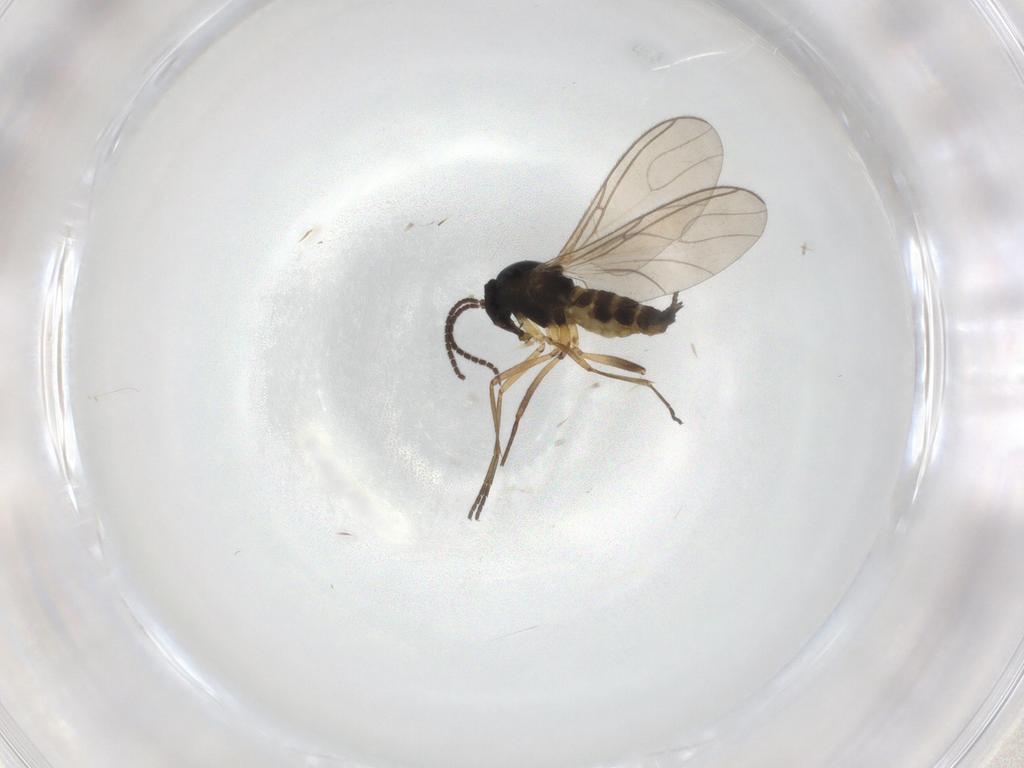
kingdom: Animalia
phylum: Arthropoda
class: Insecta
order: Diptera
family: Sciaridae
